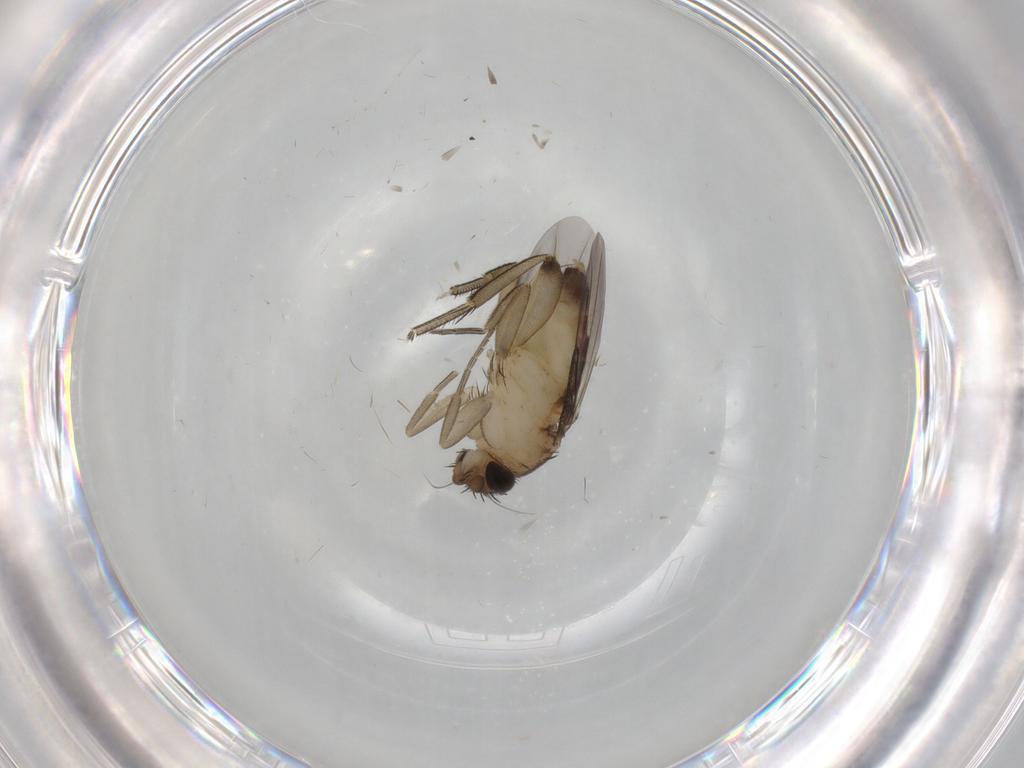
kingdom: Animalia
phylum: Arthropoda
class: Insecta
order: Diptera
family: Phoridae
